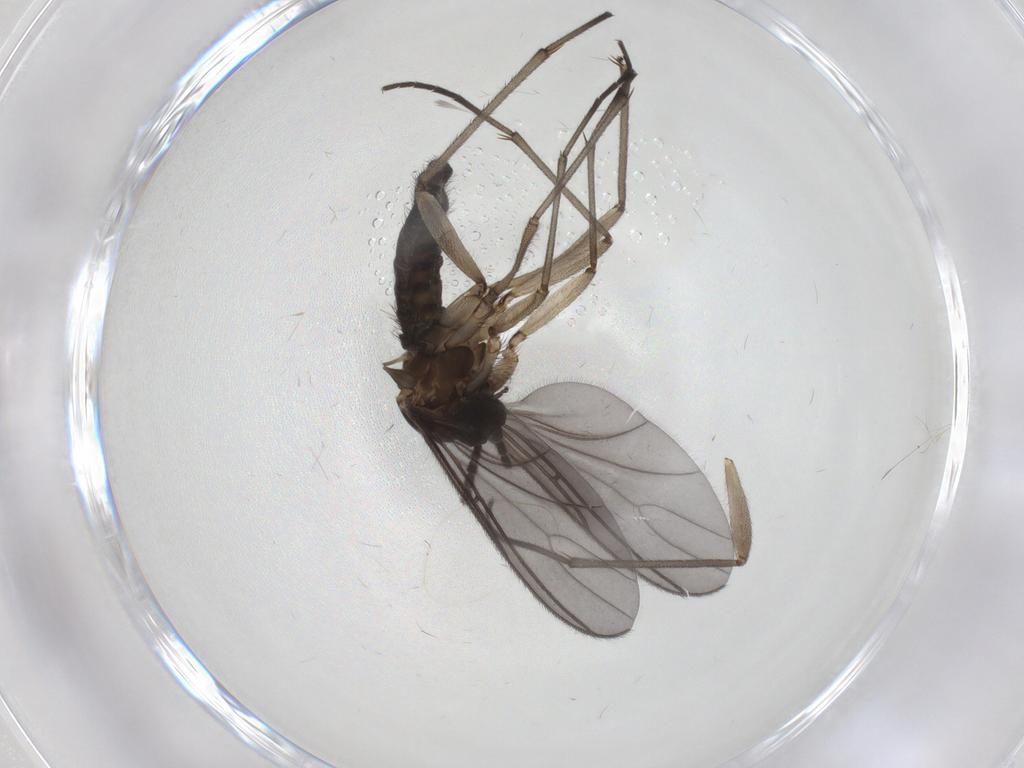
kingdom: Animalia
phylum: Arthropoda
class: Insecta
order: Diptera
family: Sciaridae
